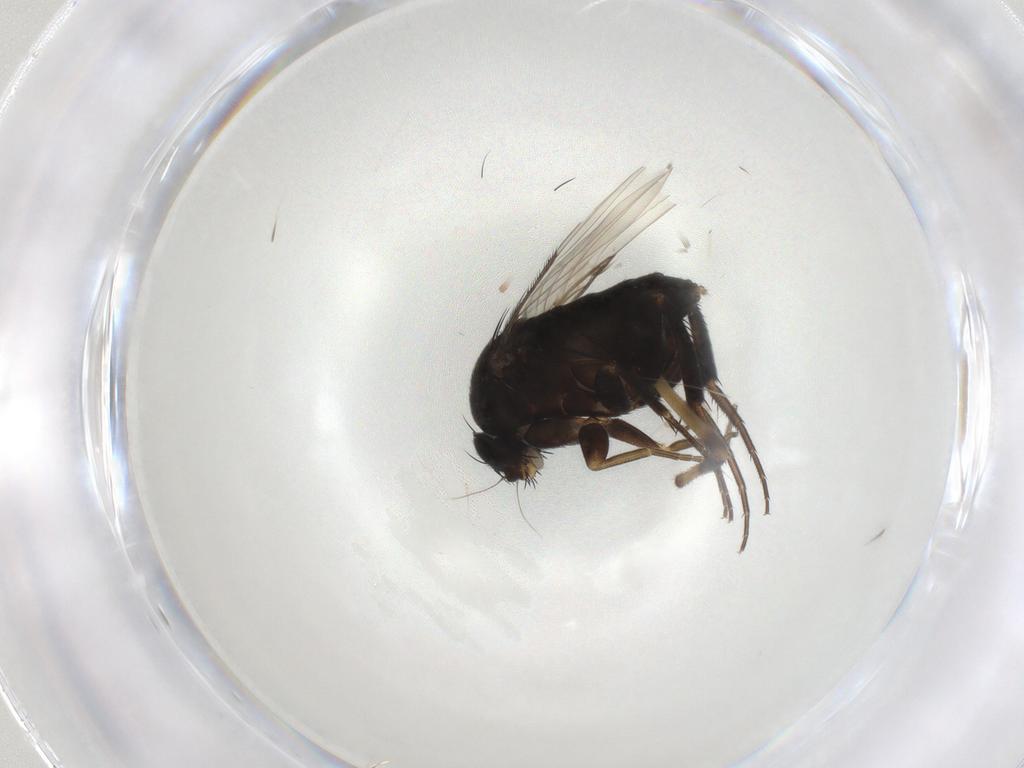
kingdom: Animalia
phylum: Arthropoda
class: Insecta
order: Diptera
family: Phoridae
